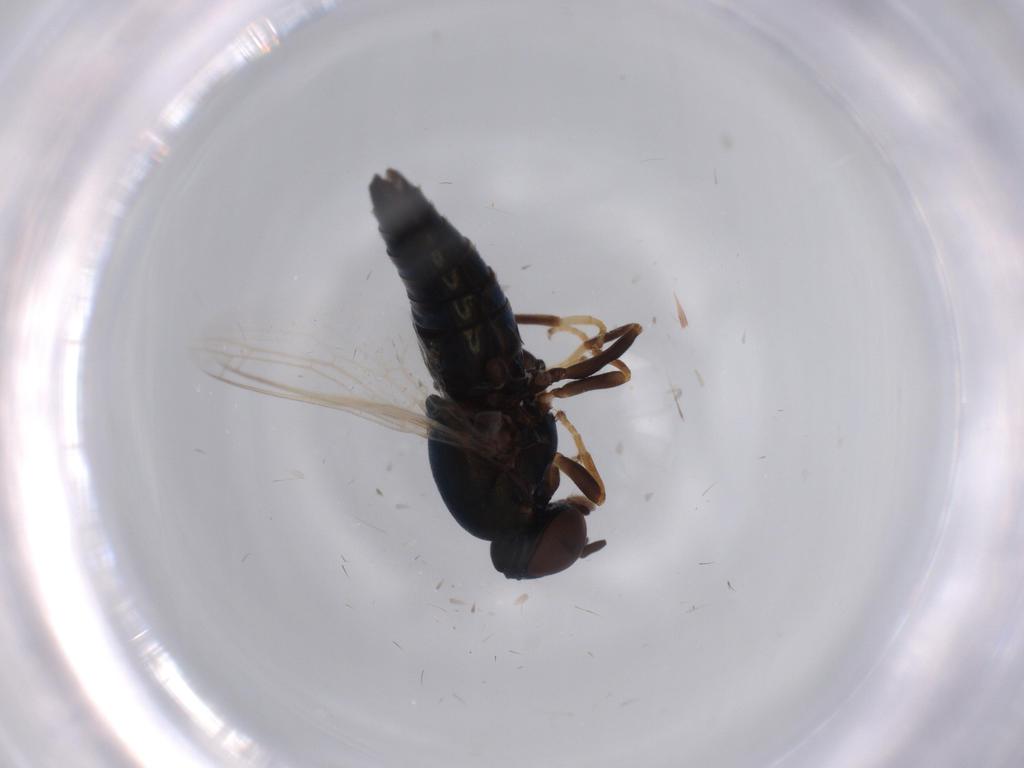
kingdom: Animalia
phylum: Arthropoda
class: Insecta
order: Diptera
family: Scenopinidae
